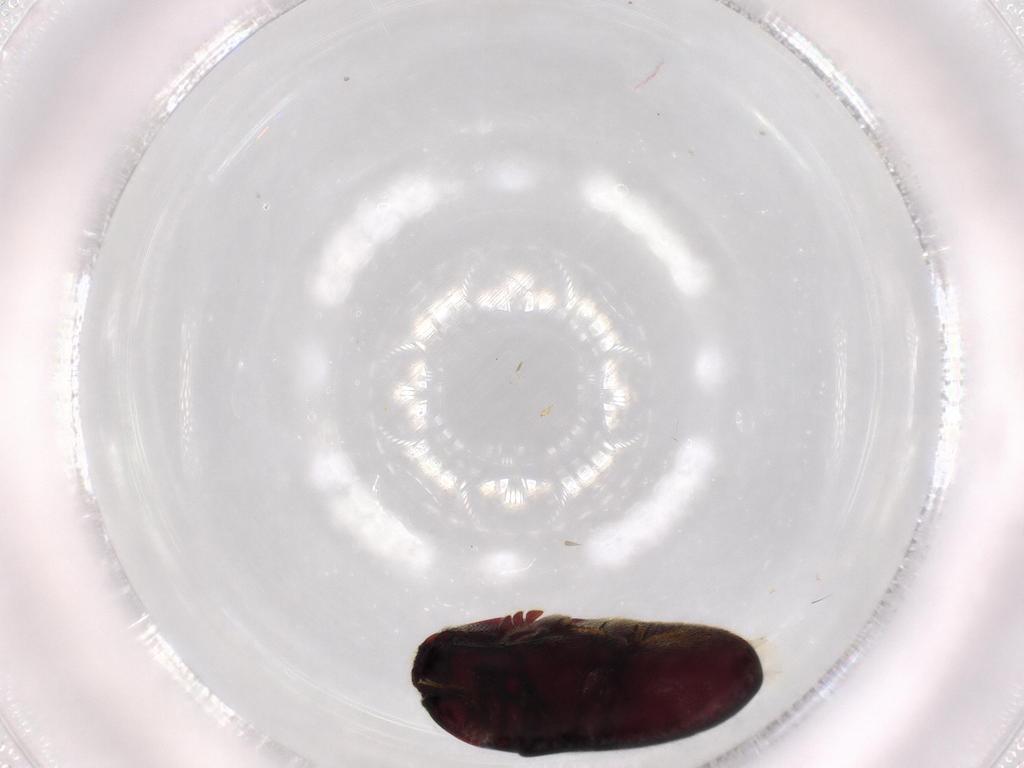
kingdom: Animalia
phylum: Arthropoda
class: Insecta
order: Coleoptera
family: Throscidae
